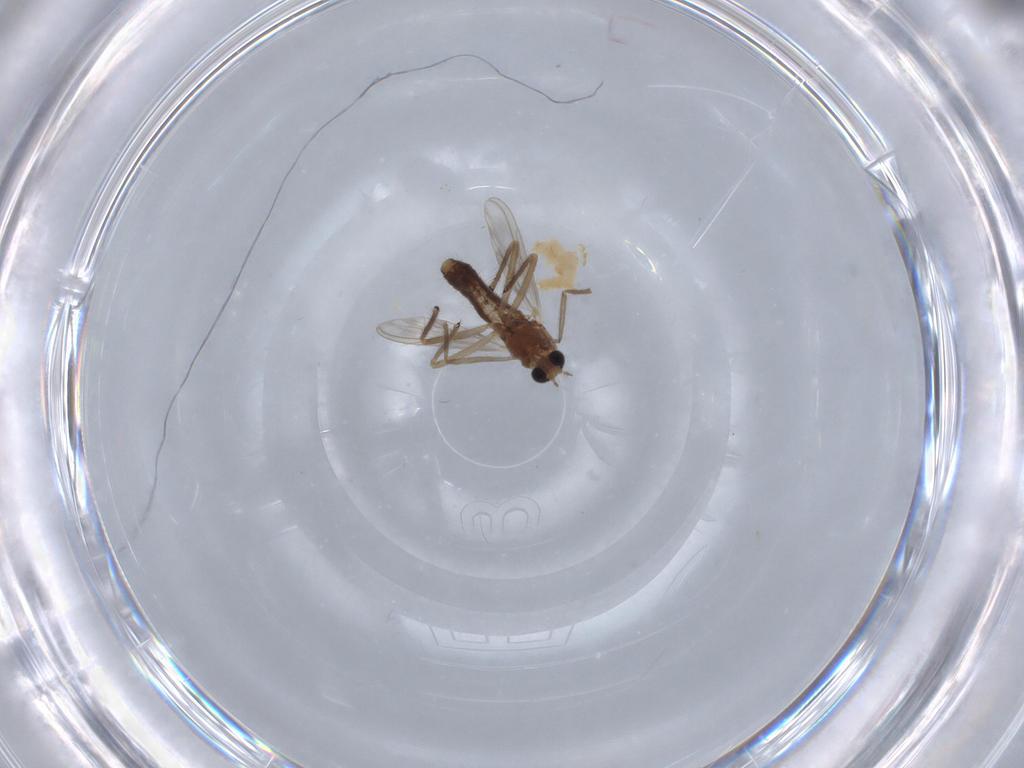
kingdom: Animalia
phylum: Arthropoda
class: Insecta
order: Diptera
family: Chironomidae
